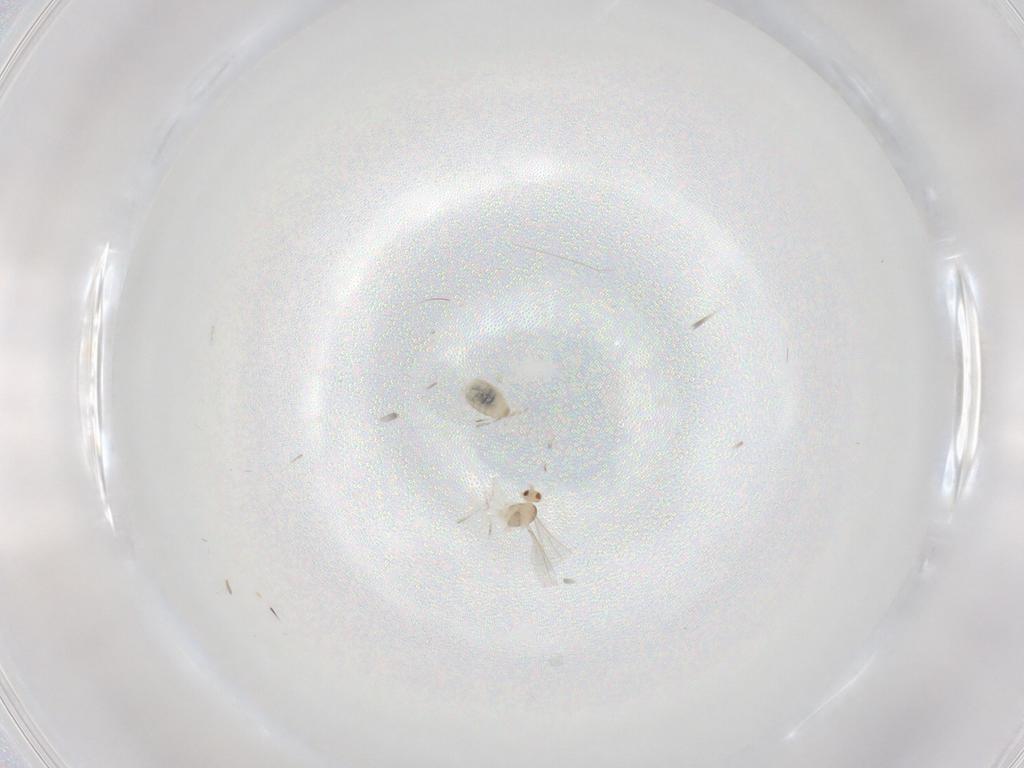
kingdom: Animalia
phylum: Arthropoda
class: Insecta
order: Diptera
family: Cecidomyiidae
